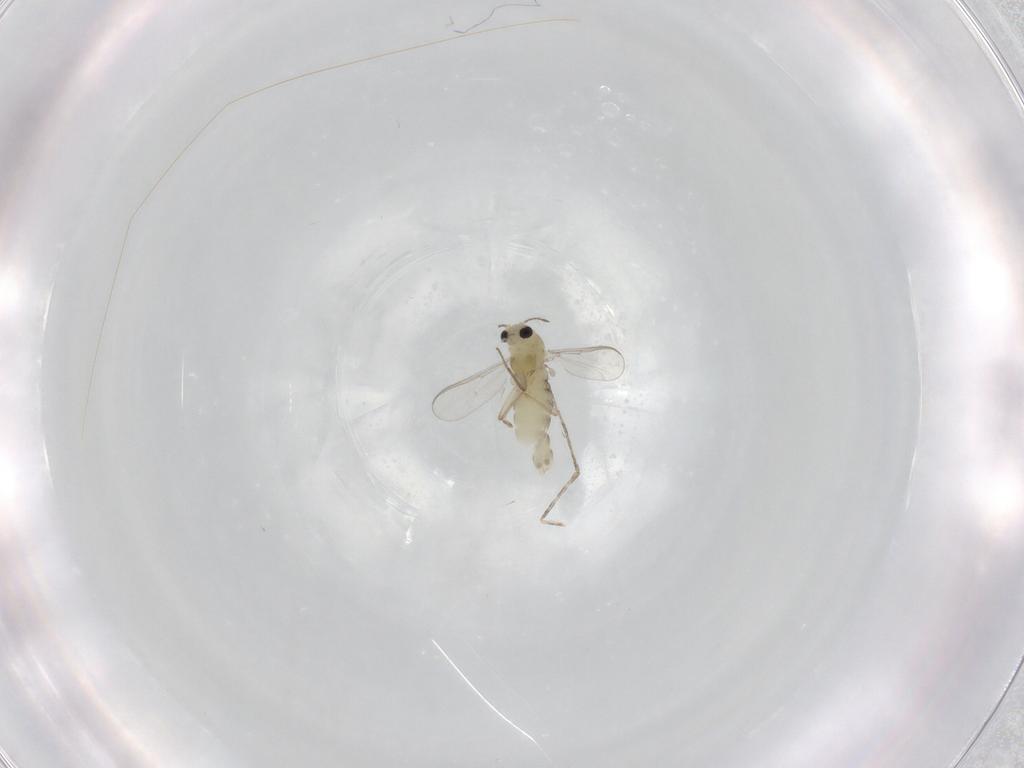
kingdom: Animalia
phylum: Arthropoda
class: Insecta
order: Diptera
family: Chironomidae
